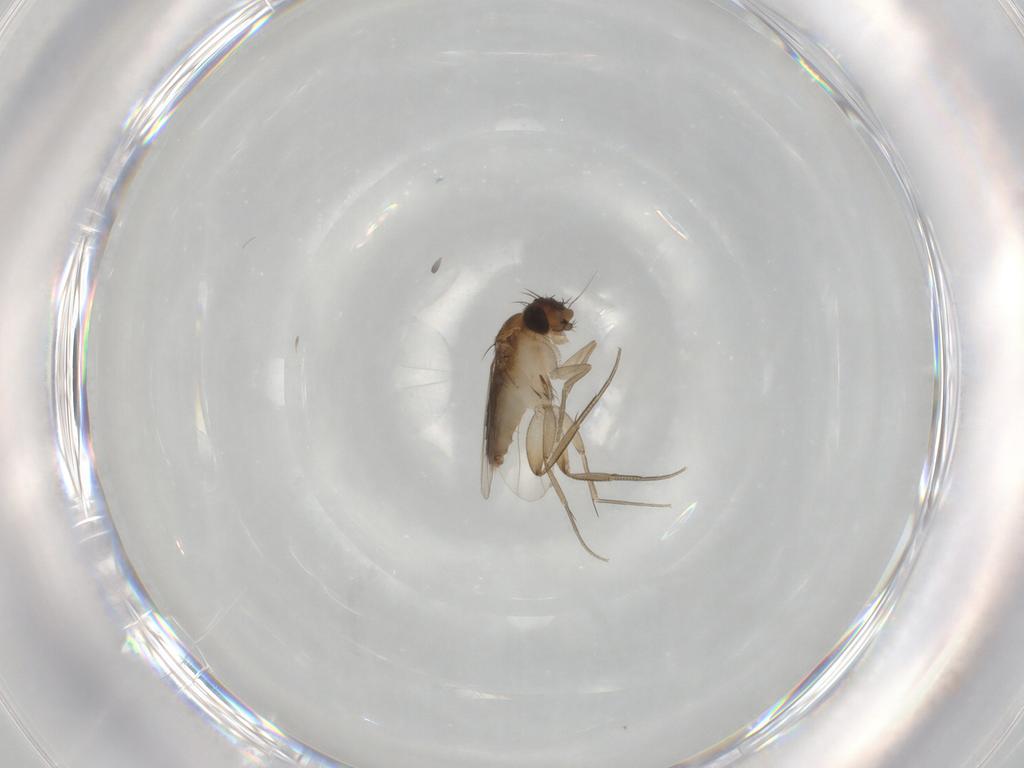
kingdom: Animalia
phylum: Arthropoda
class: Insecta
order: Diptera
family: Phoridae
